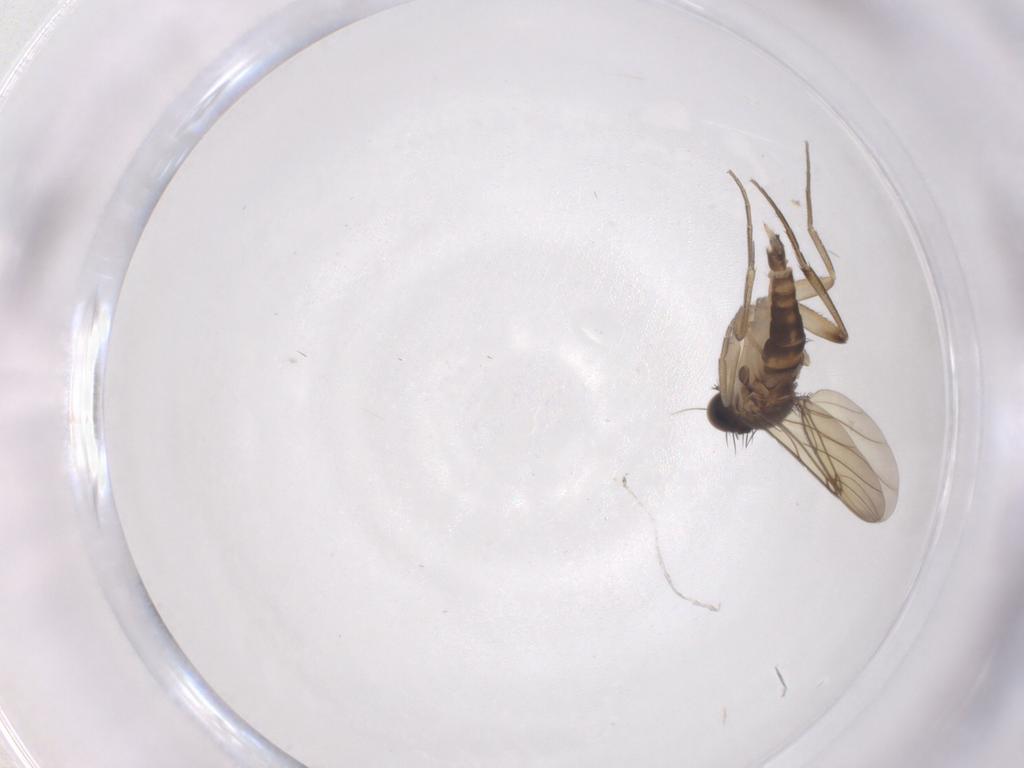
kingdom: Animalia
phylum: Arthropoda
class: Insecta
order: Diptera
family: Phoridae
